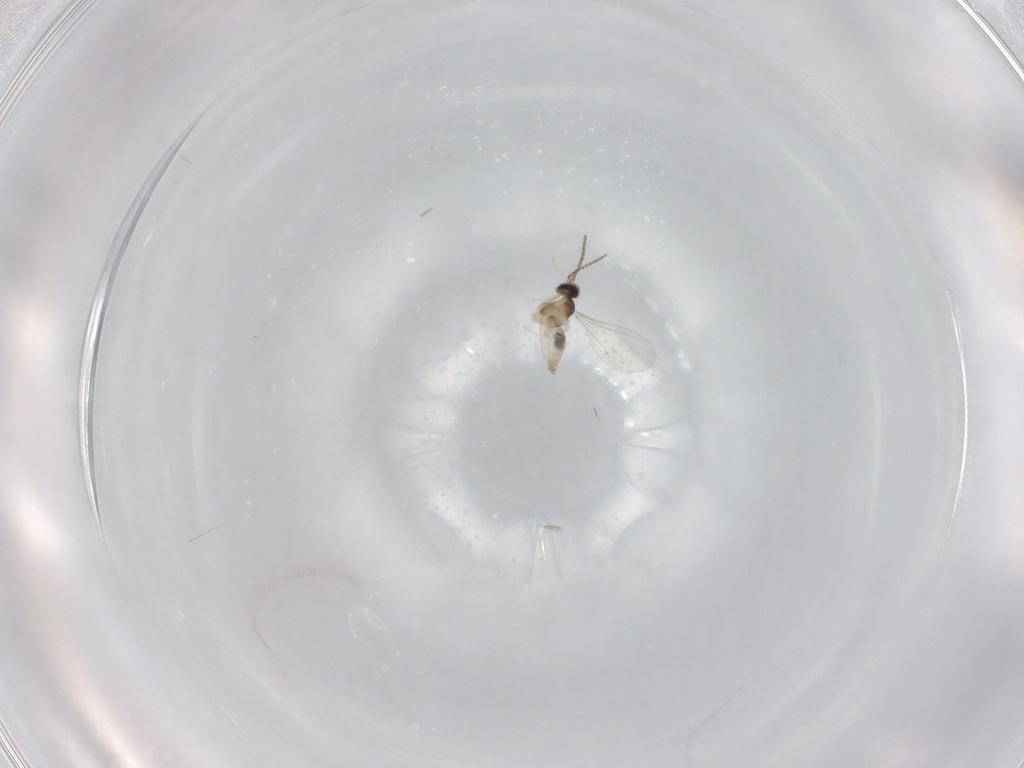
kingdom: Animalia
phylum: Arthropoda
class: Insecta
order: Diptera
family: Cecidomyiidae
